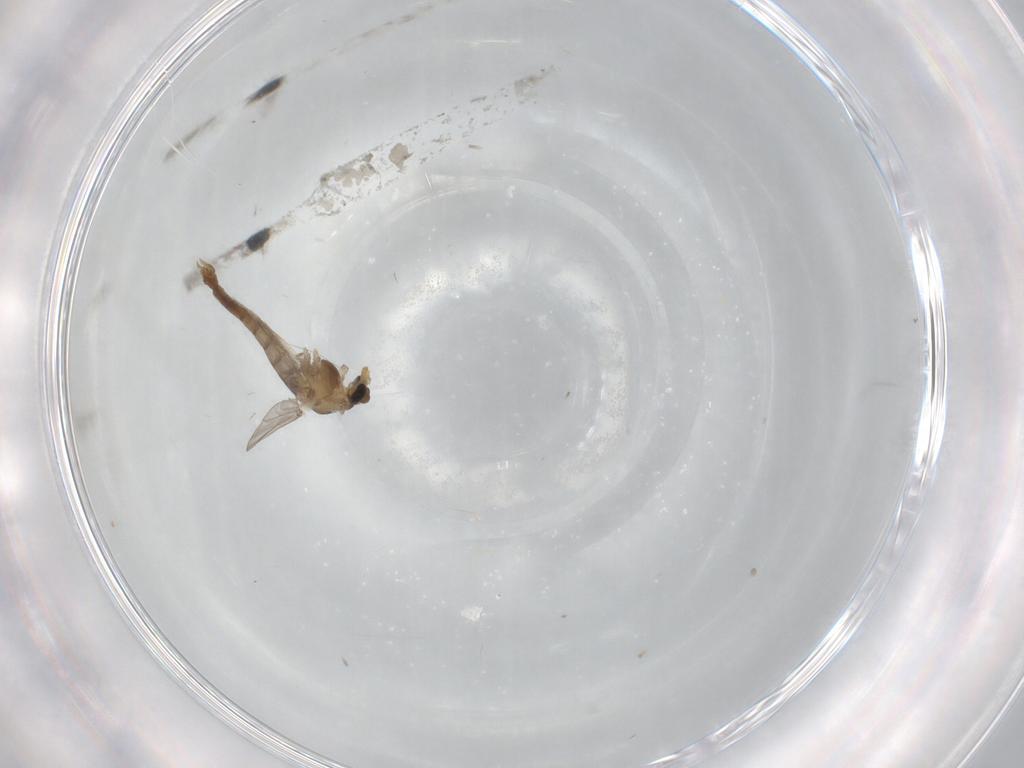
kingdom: Animalia
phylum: Arthropoda
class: Insecta
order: Diptera
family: Chironomidae
